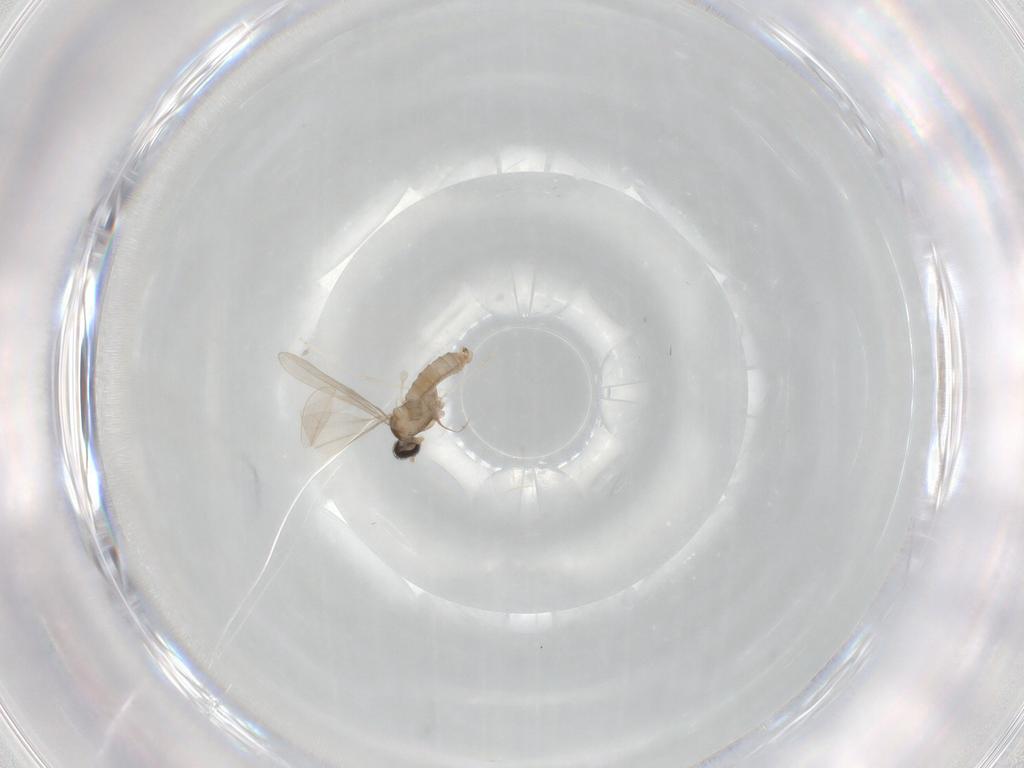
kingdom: Animalia
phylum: Arthropoda
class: Insecta
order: Diptera
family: Cecidomyiidae
